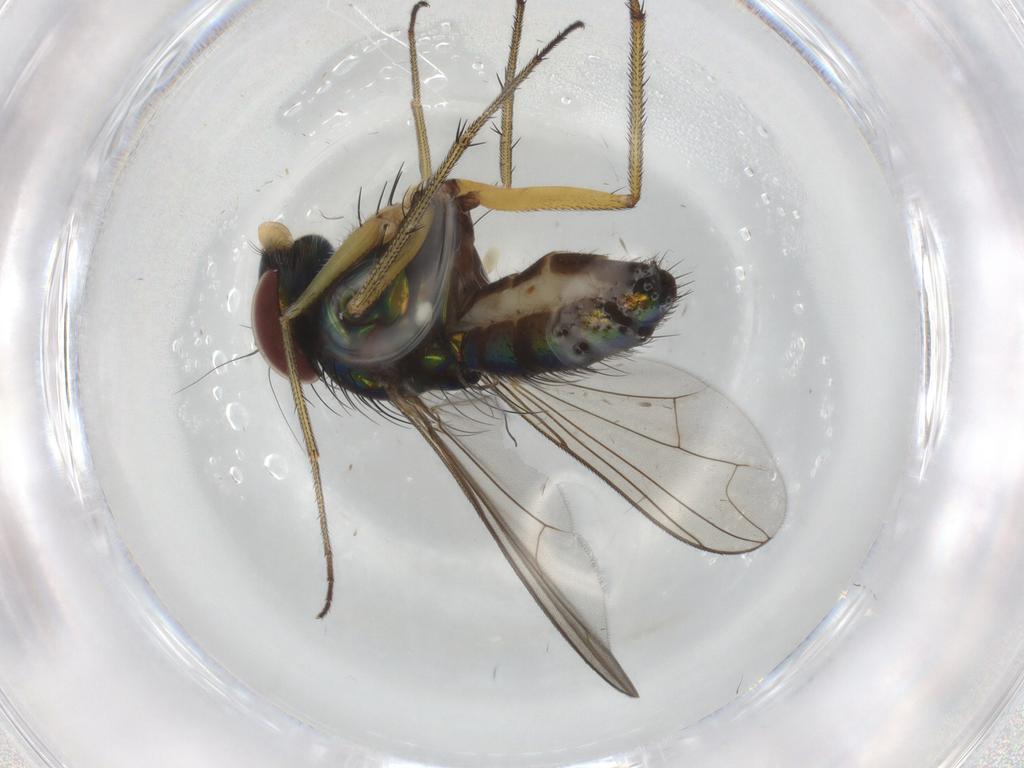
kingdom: Animalia
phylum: Arthropoda
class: Insecta
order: Diptera
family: Dolichopodidae
